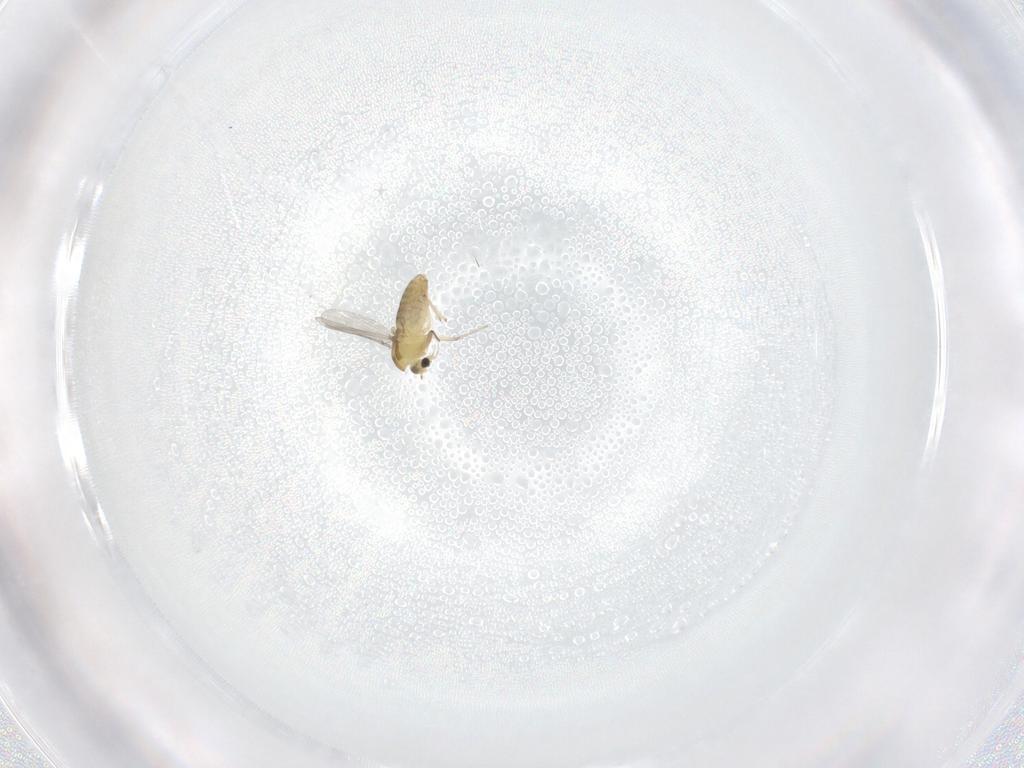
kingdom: Animalia
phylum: Arthropoda
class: Insecta
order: Diptera
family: Chironomidae
